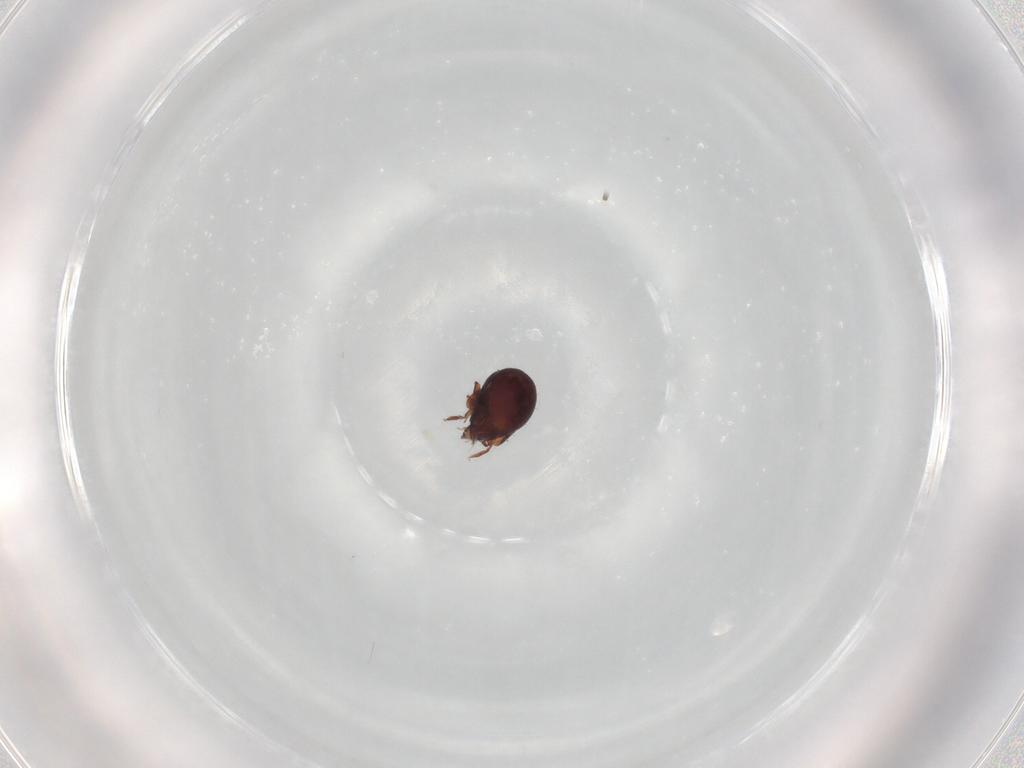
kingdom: Animalia
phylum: Arthropoda
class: Arachnida
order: Sarcoptiformes
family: Humerobatidae
